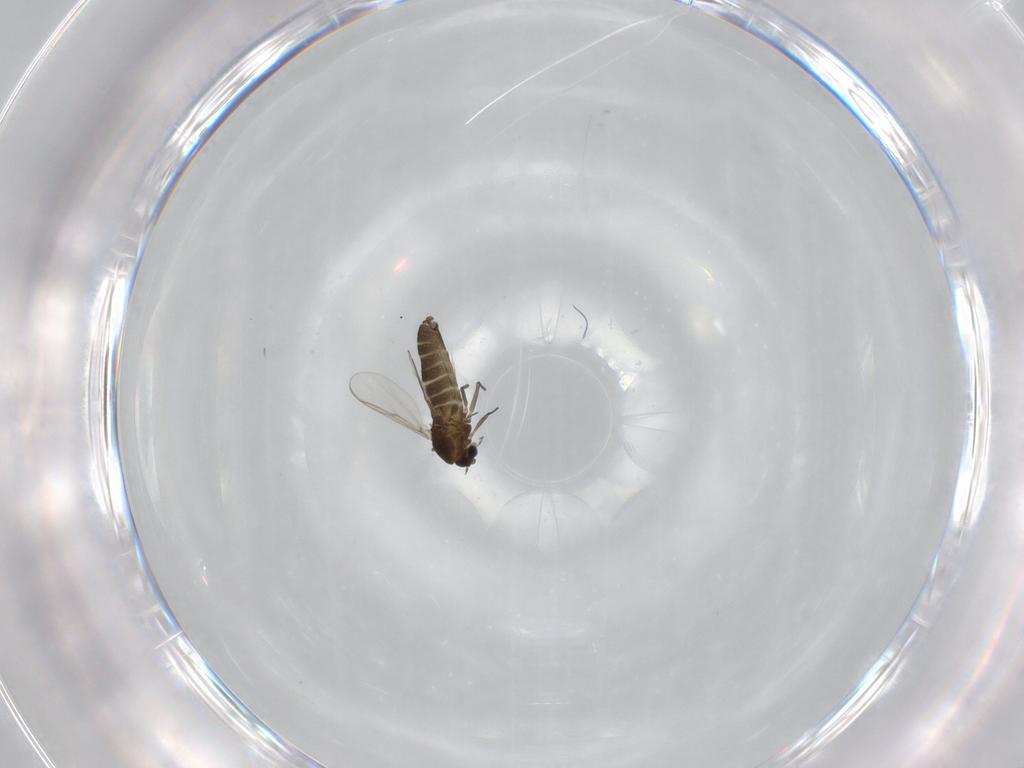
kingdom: Animalia
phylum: Arthropoda
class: Insecta
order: Diptera
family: Chironomidae
